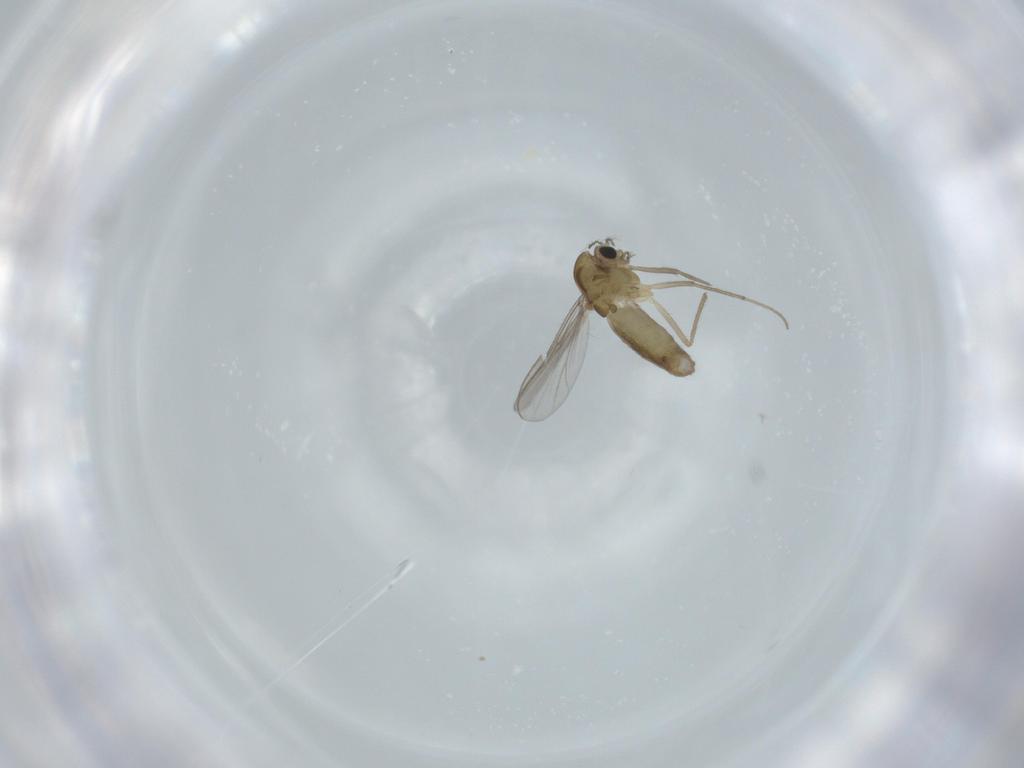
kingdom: Animalia
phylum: Arthropoda
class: Insecta
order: Diptera
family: Chironomidae
